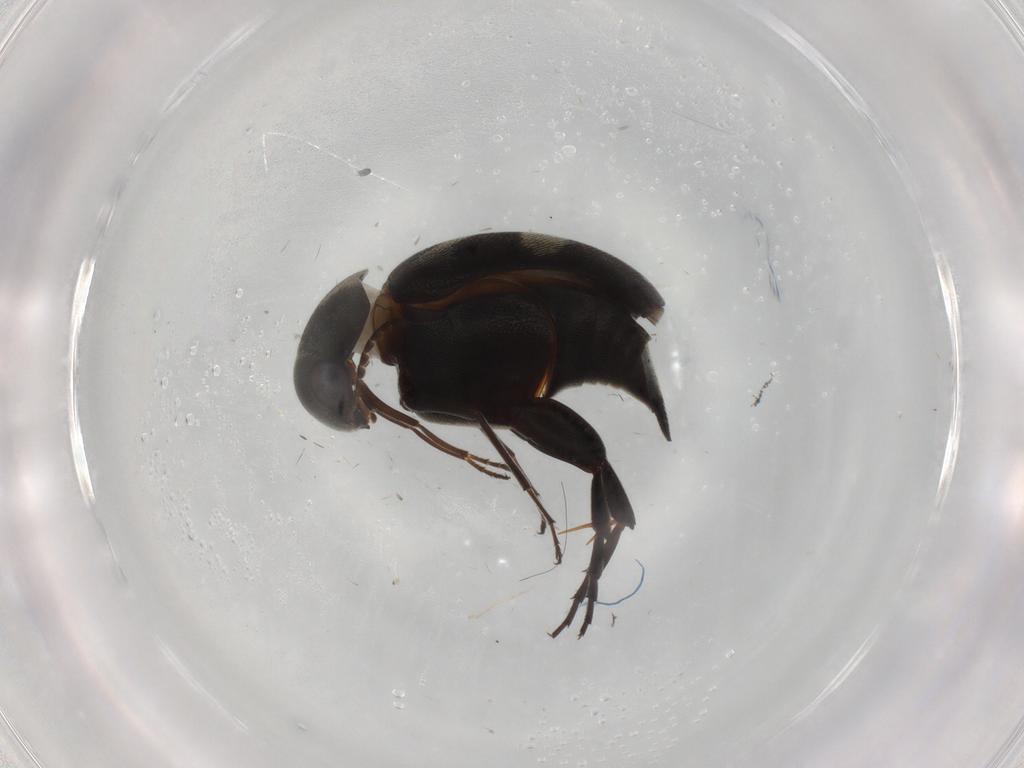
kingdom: Animalia
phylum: Arthropoda
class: Insecta
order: Coleoptera
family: Mordellidae
